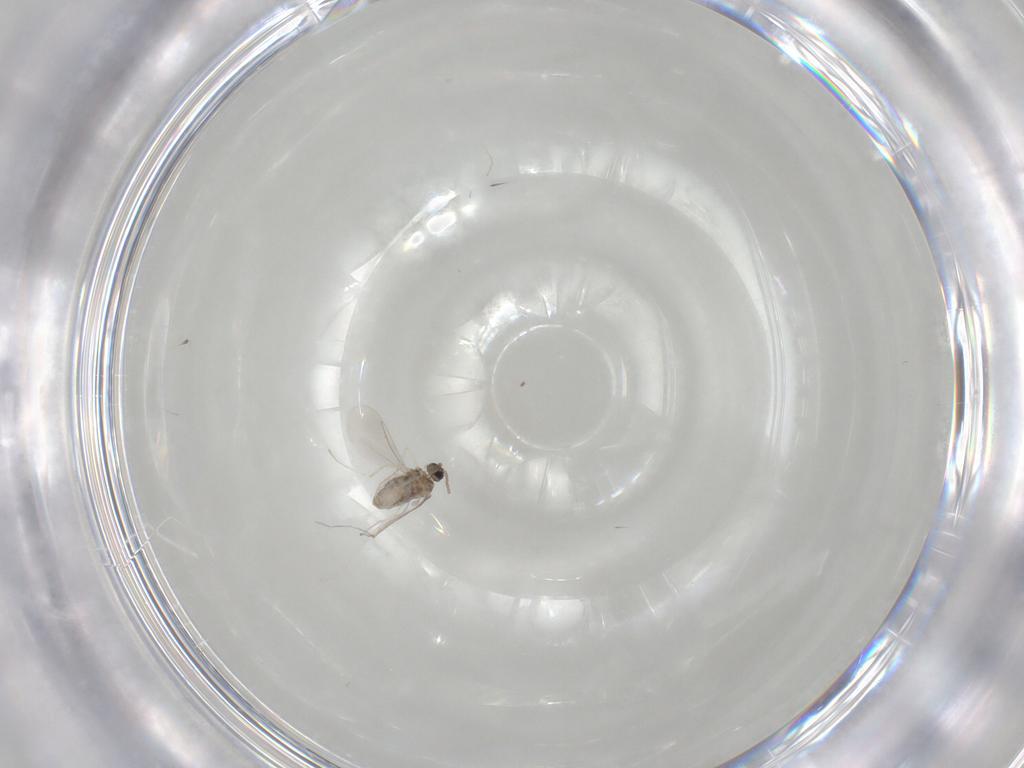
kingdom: Animalia
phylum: Arthropoda
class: Insecta
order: Diptera
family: Cecidomyiidae
